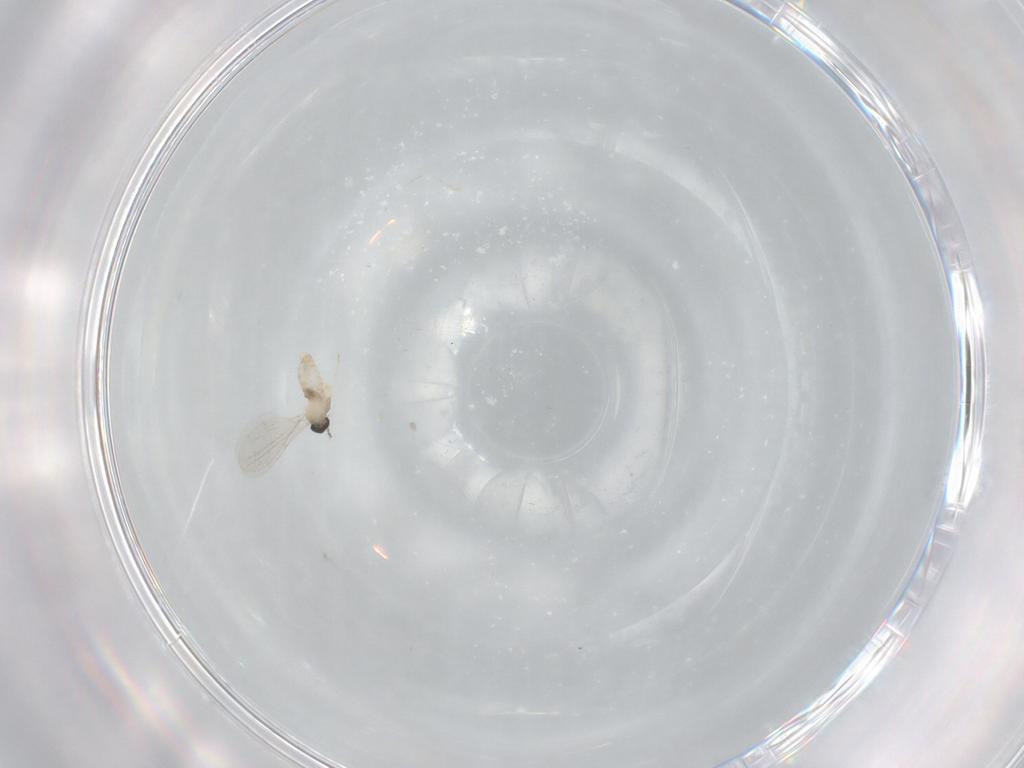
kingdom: Animalia
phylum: Arthropoda
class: Insecta
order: Diptera
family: Cecidomyiidae
